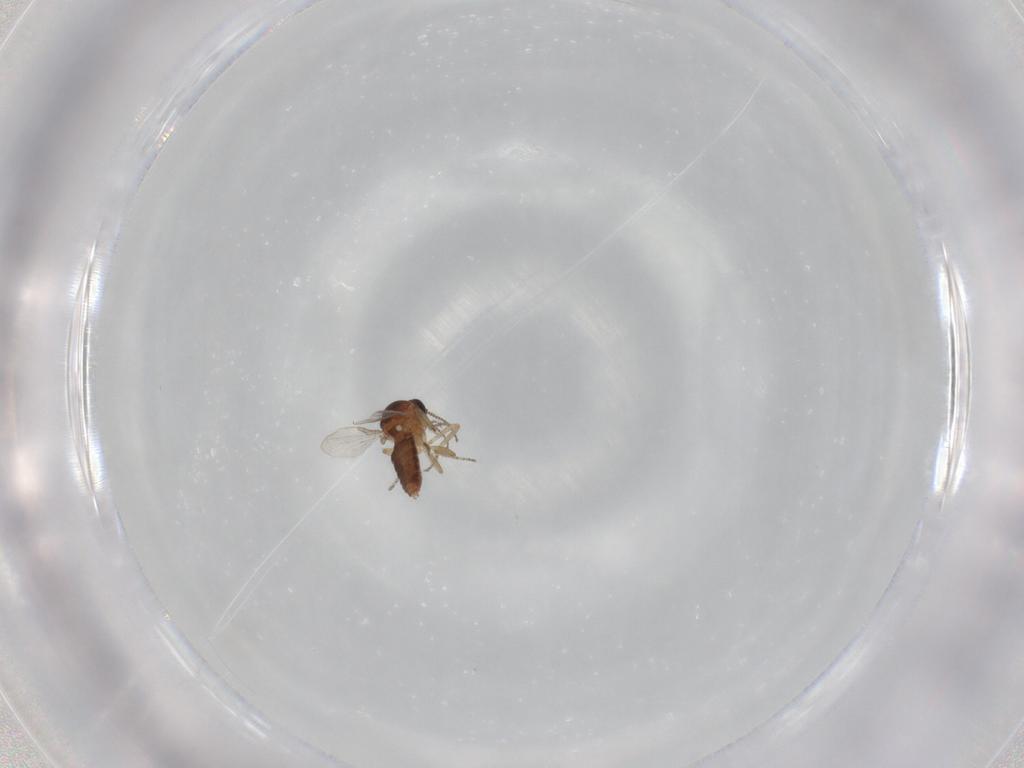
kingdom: Animalia
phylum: Arthropoda
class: Insecta
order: Diptera
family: Ceratopogonidae
